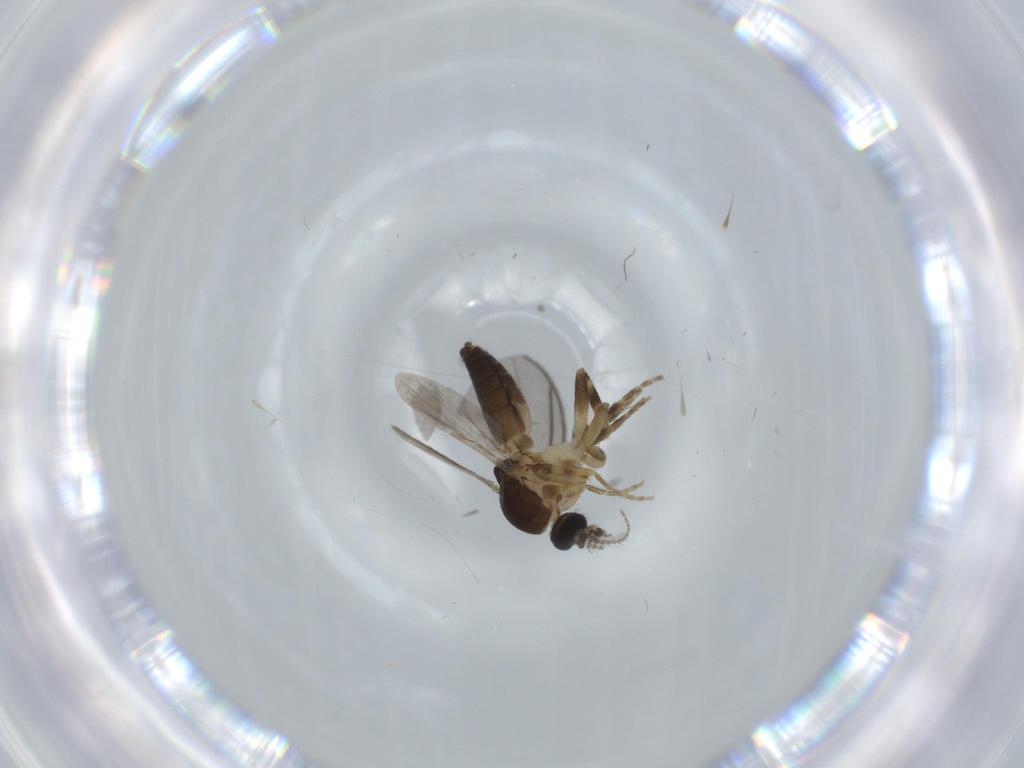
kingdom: Animalia
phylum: Arthropoda
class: Insecta
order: Diptera
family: Ceratopogonidae
